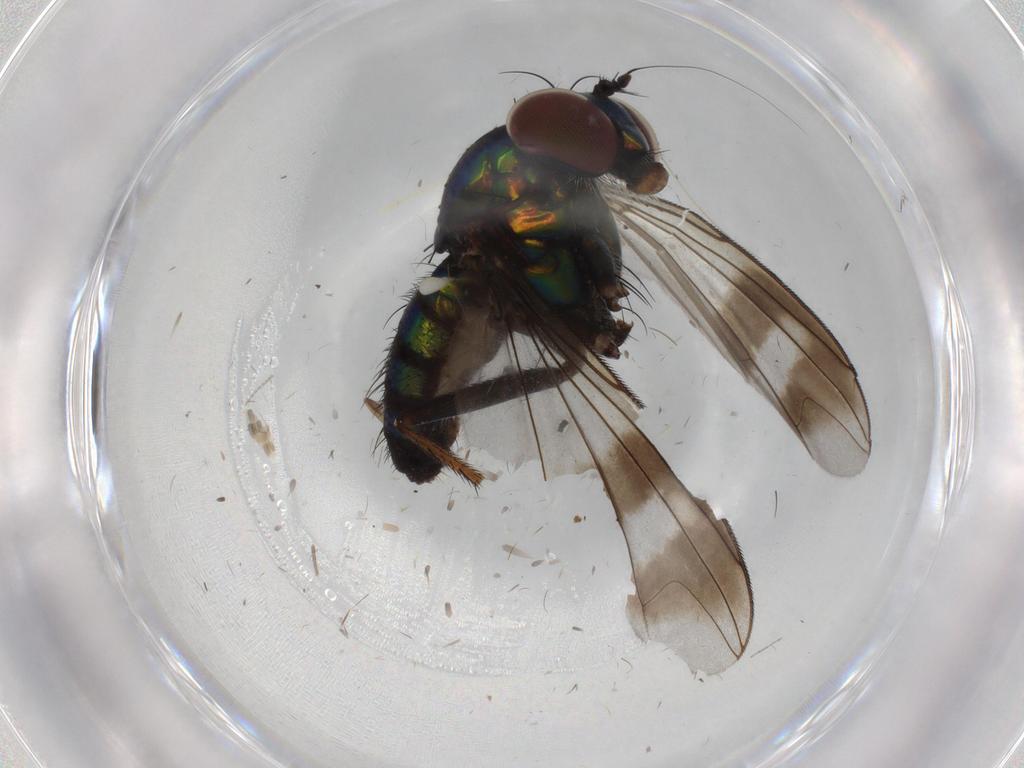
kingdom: Animalia
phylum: Arthropoda
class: Insecta
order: Diptera
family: Dolichopodidae
